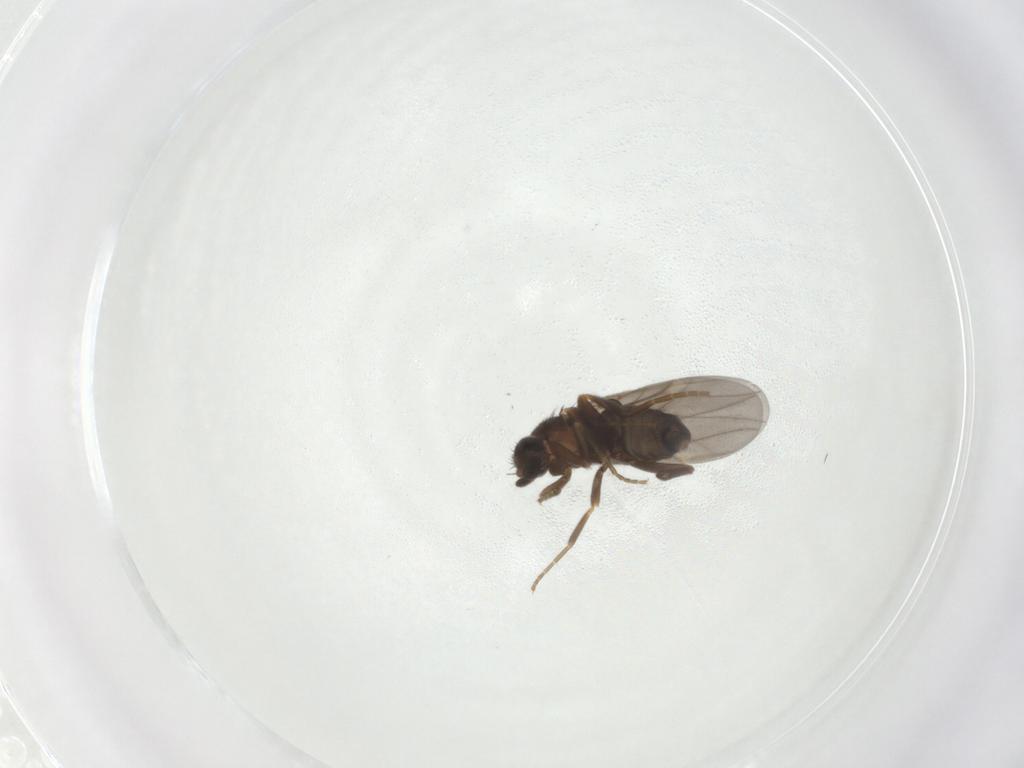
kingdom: Animalia
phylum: Arthropoda
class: Insecta
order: Diptera
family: Phoridae
